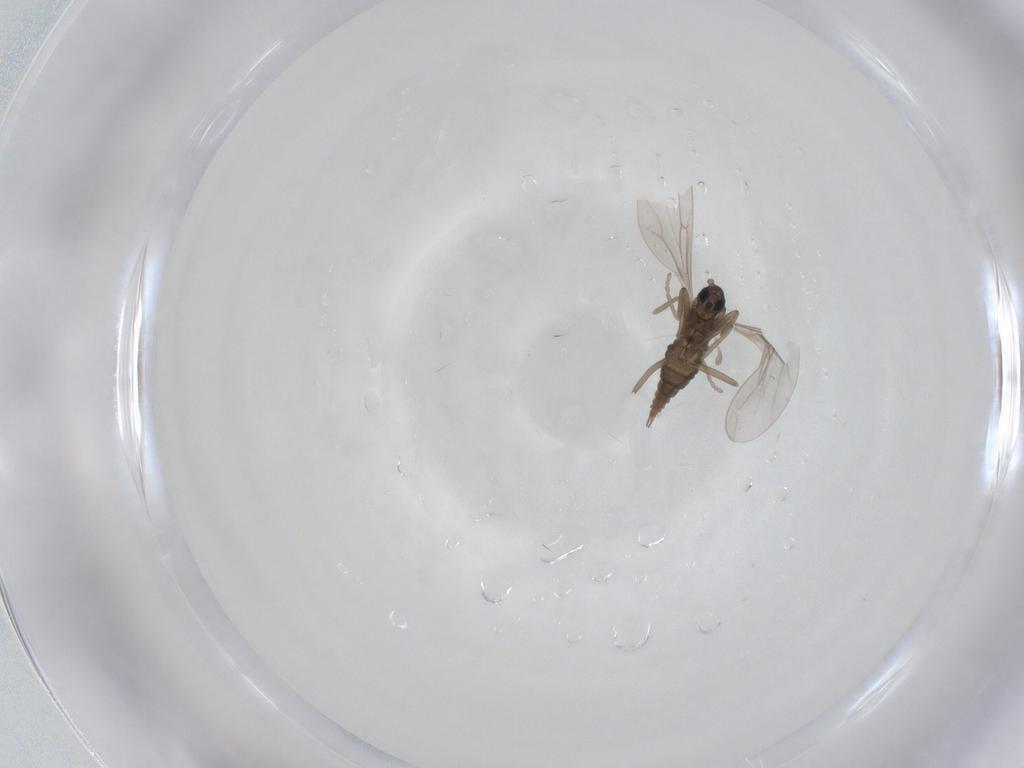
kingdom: Animalia
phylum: Arthropoda
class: Insecta
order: Diptera
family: Cecidomyiidae
